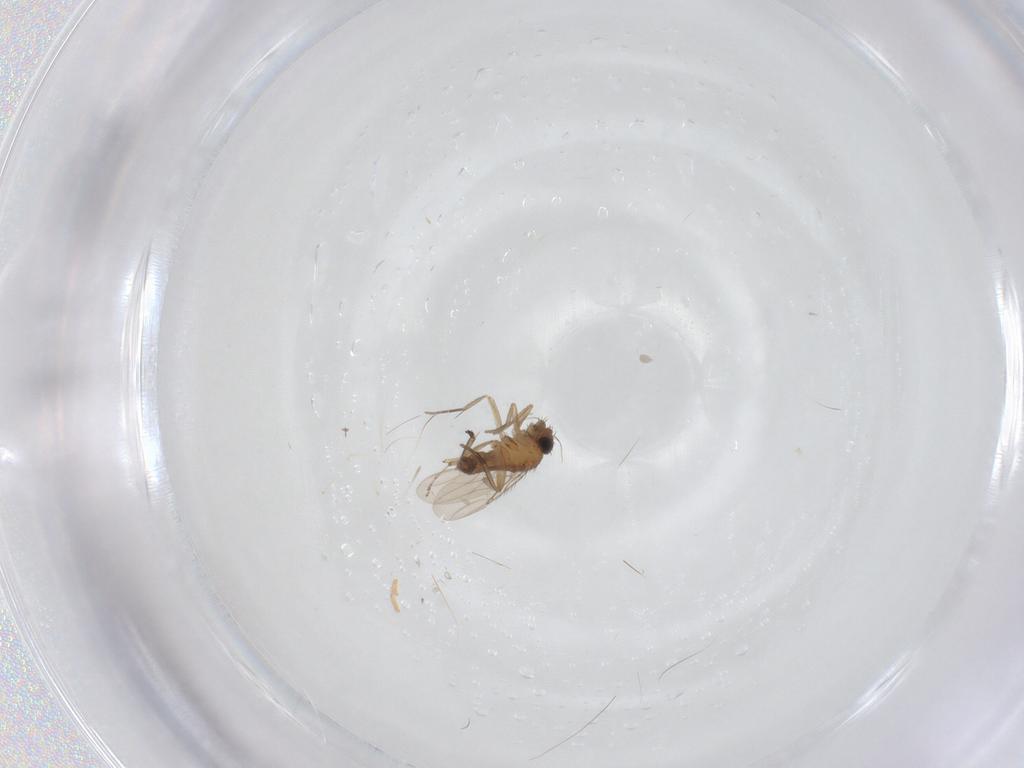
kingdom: Animalia
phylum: Arthropoda
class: Insecta
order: Diptera
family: Phoridae
